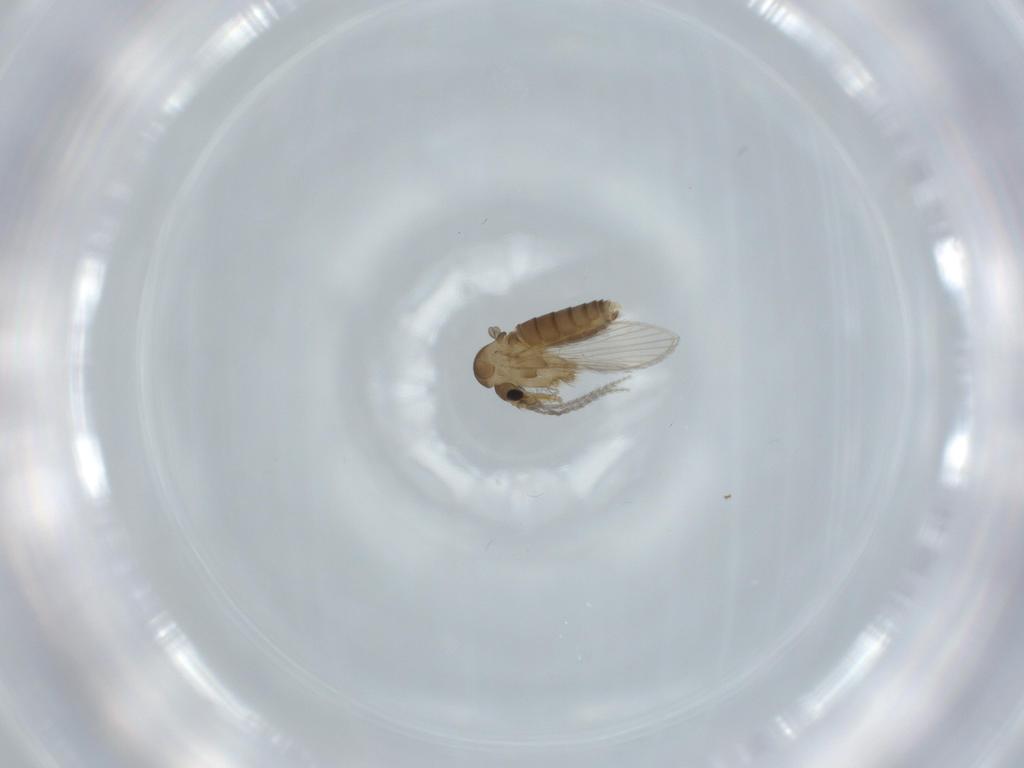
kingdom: Animalia
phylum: Arthropoda
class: Insecta
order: Diptera
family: Psychodidae
